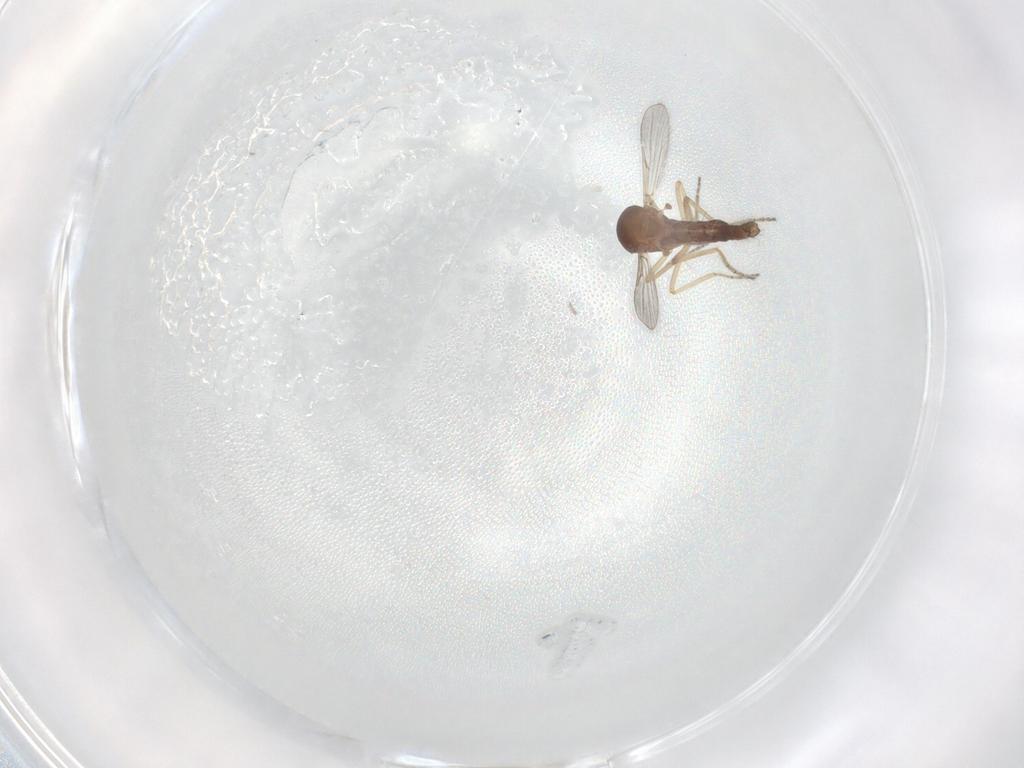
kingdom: Animalia
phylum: Arthropoda
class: Insecta
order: Diptera
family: Ceratopogonidae
